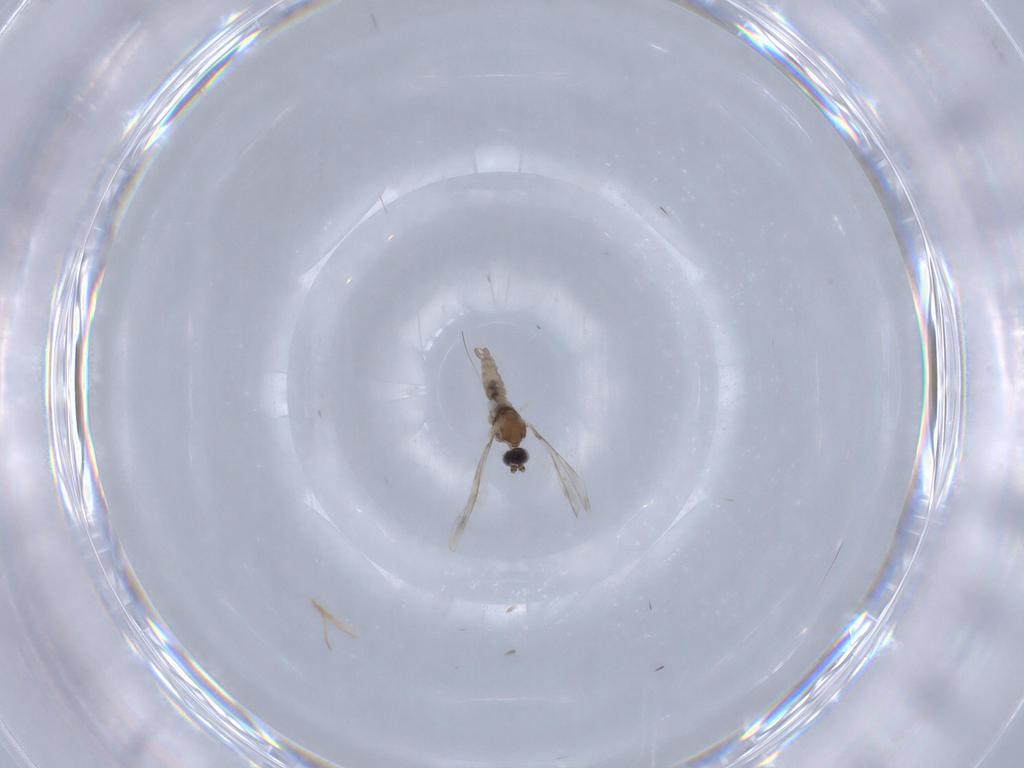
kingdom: Animalia
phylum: Arthropoda
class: Insecta
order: Diptera
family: Cecidomyiidae
